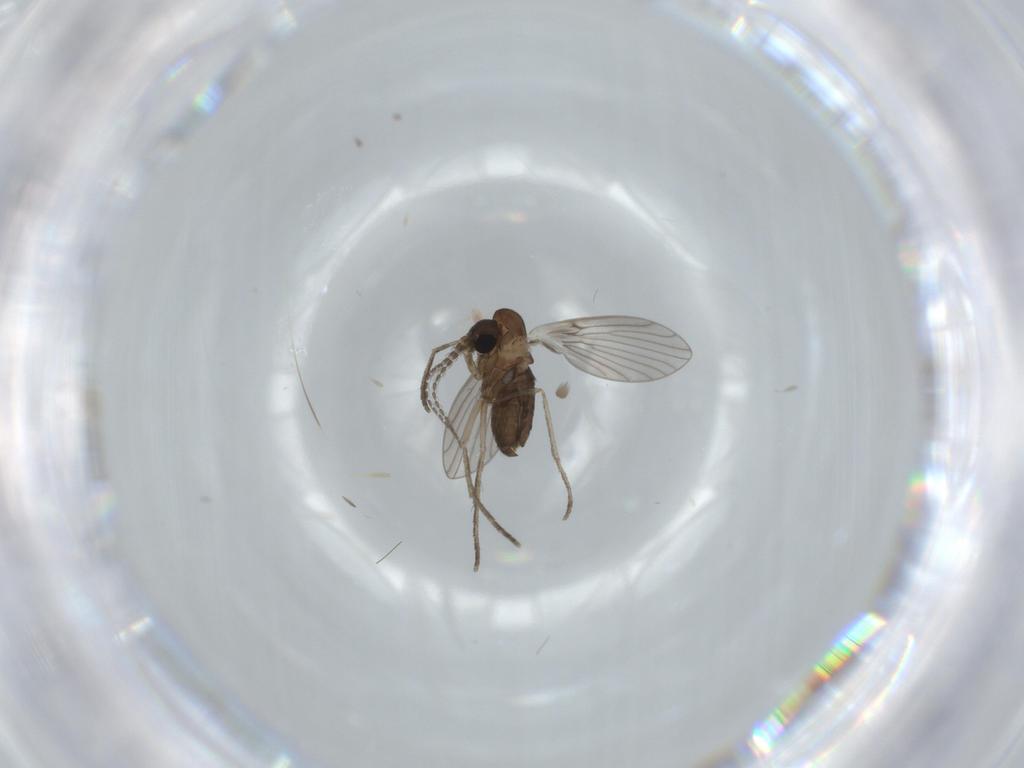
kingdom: Animalia
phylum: Arthropoda
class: Insecta
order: Diptera
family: Psychodidae
